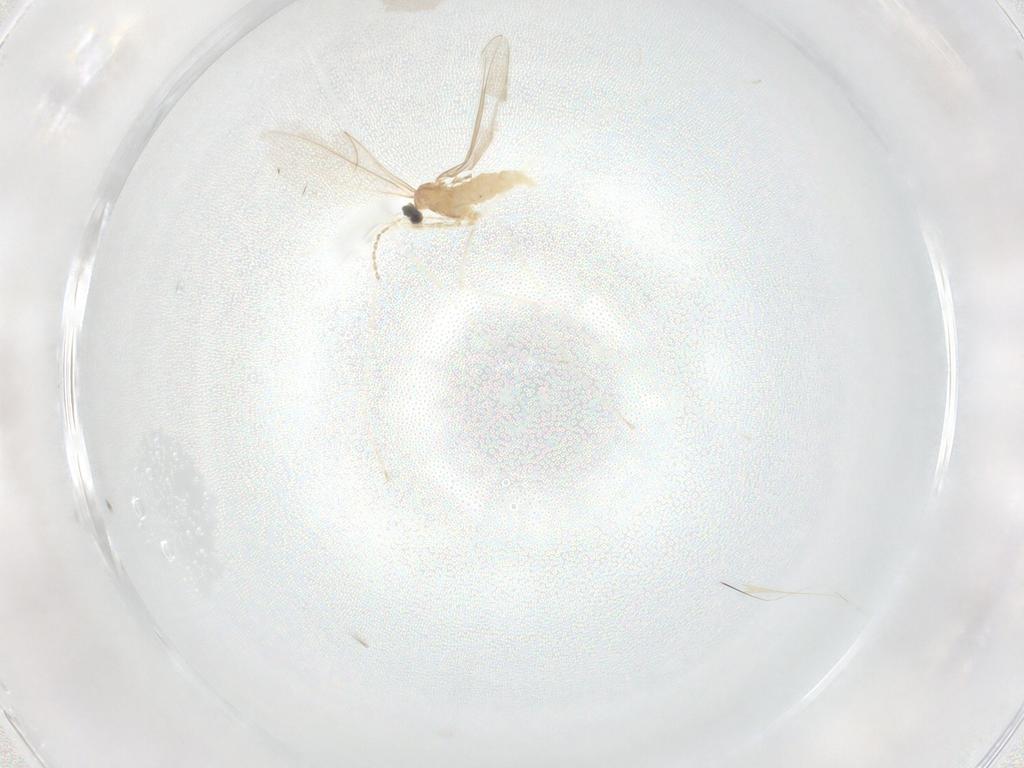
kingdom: Animalia
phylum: Arthropoda
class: Insecta
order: Diptera
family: Cecidomyiidae
